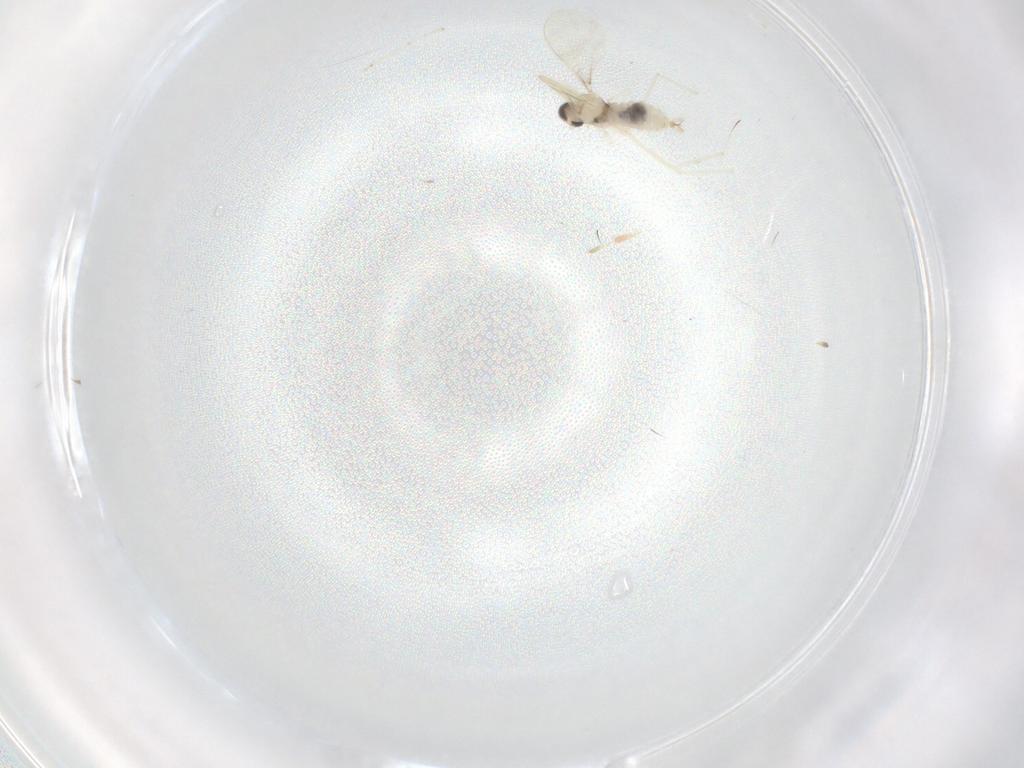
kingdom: Animalia
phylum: Arthropoda
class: Insecta
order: Diptera
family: Cecidomyiidae
